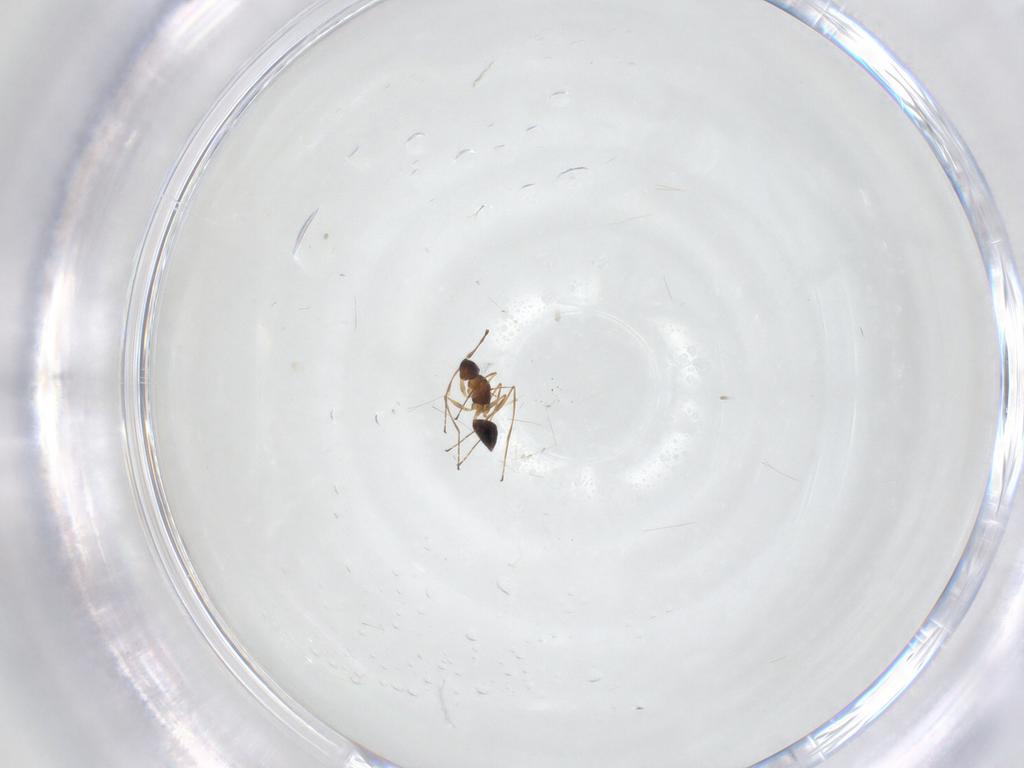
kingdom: Animalia
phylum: Arthropoda
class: Insecta
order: Hymenoptera
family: Mymaridae
